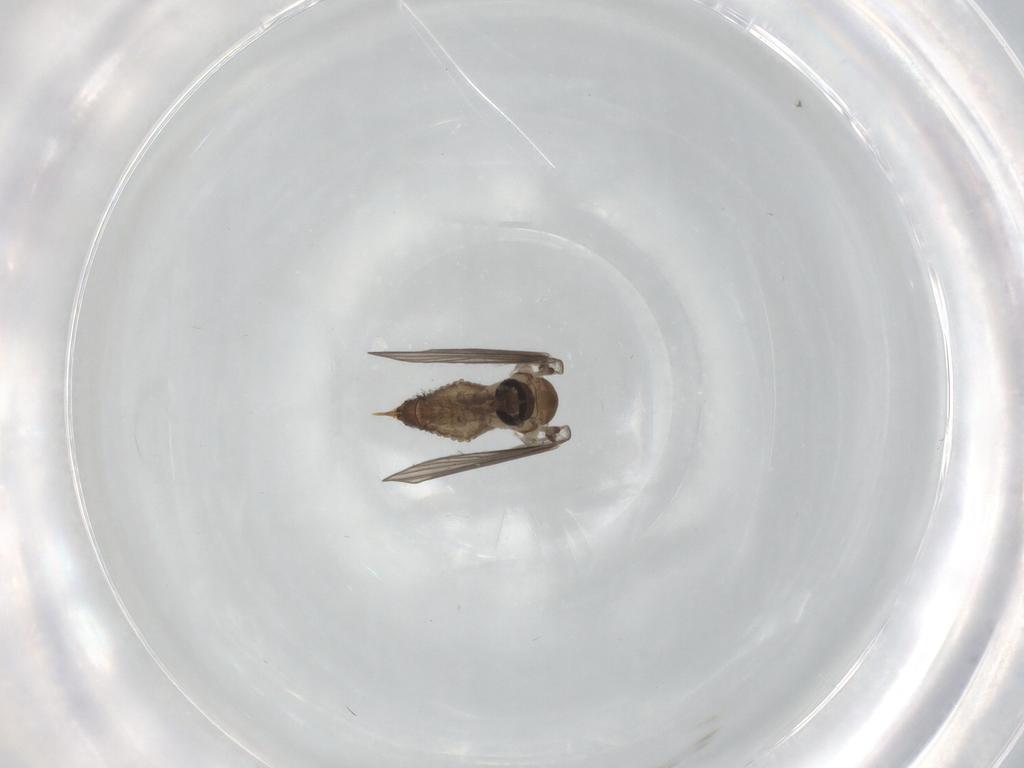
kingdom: Animalia
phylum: Arthropoda
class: Insecta
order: Diptera
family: Ceratopogonidae
